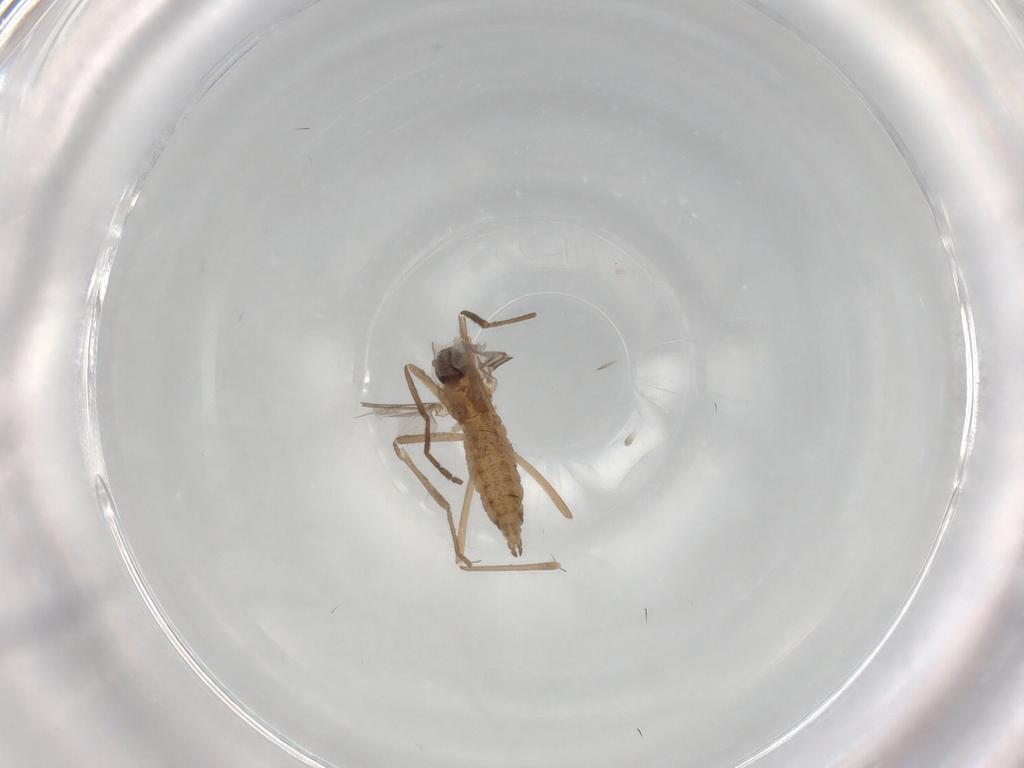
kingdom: Animalia
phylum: Arthropoda
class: Insecta
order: Diptera
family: Cecidomyiidae
